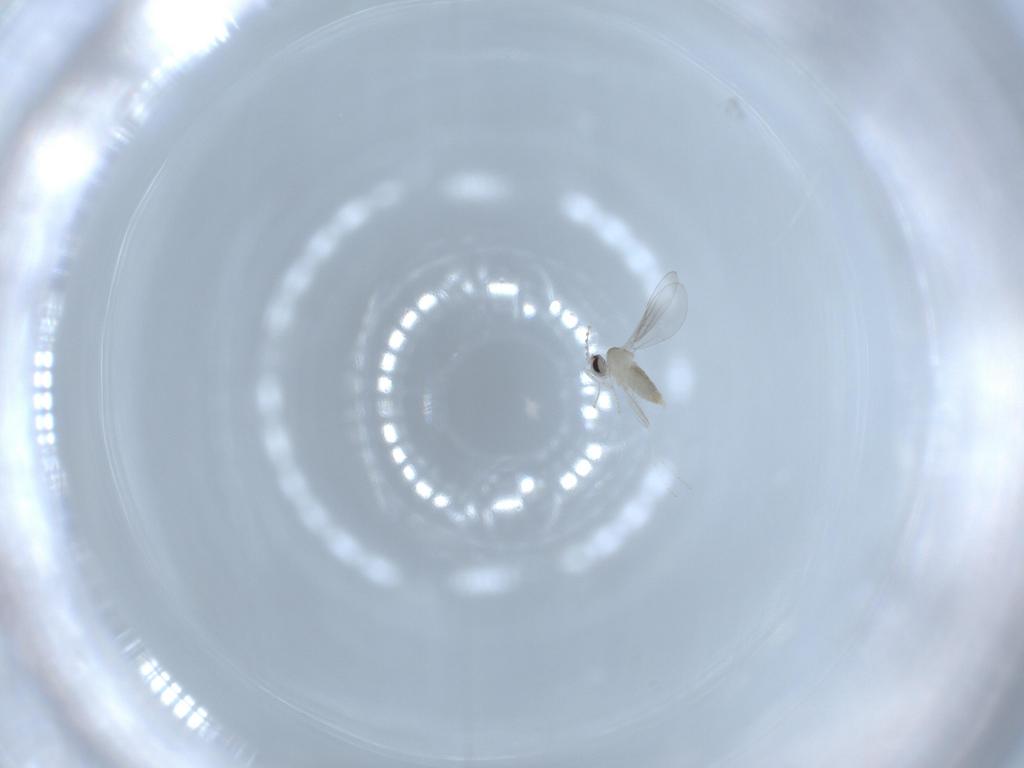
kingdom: Animalia
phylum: Arthropoda
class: Insecta
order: Diptera
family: Cecidomyiidae
